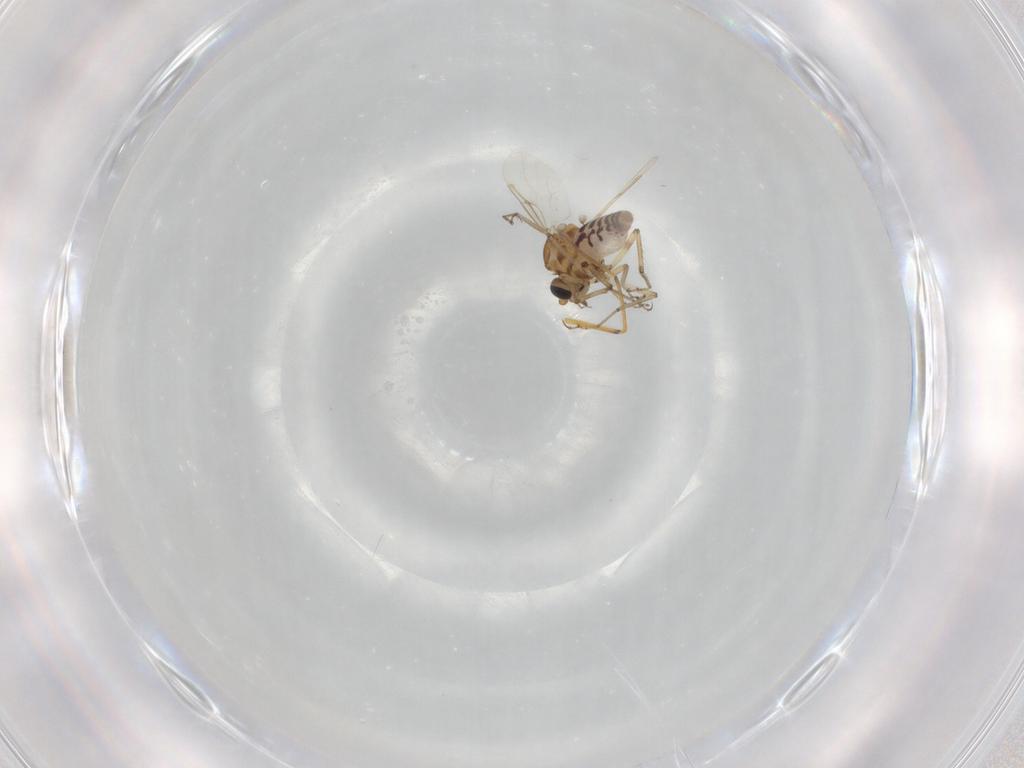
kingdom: Animalia
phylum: Arthropoda
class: Insecta
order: Diptera
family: Ceratopogonidae
